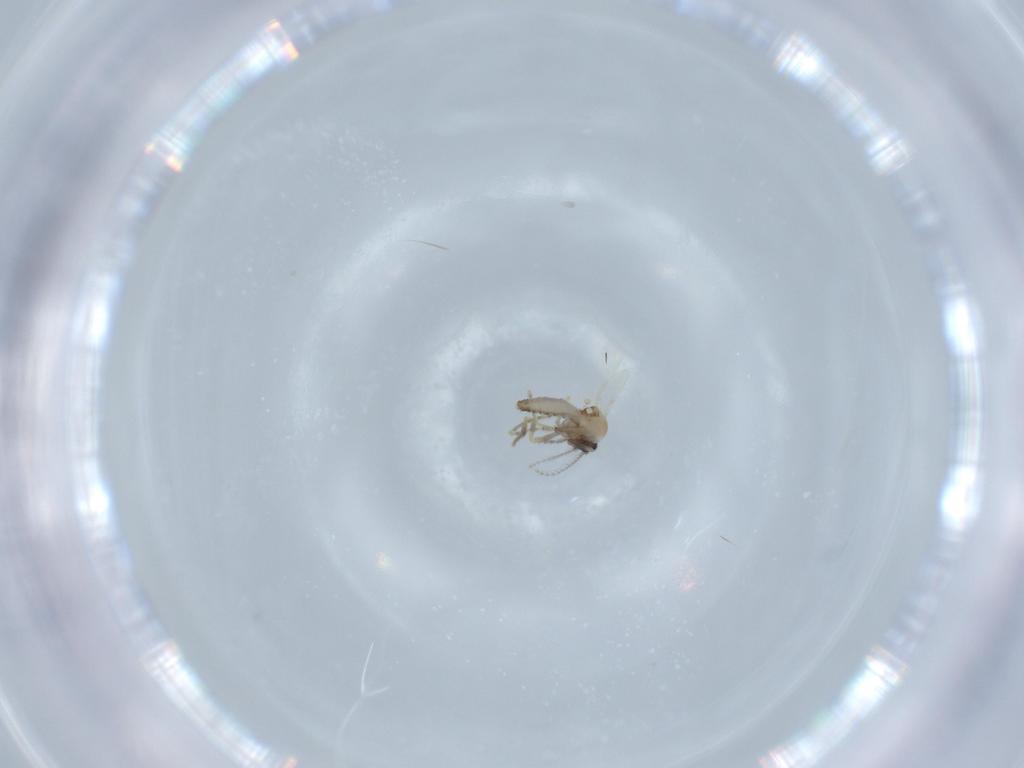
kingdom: Animalia
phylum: Arthropoda
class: Insecta
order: Diptera
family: Ceratopogonidae
